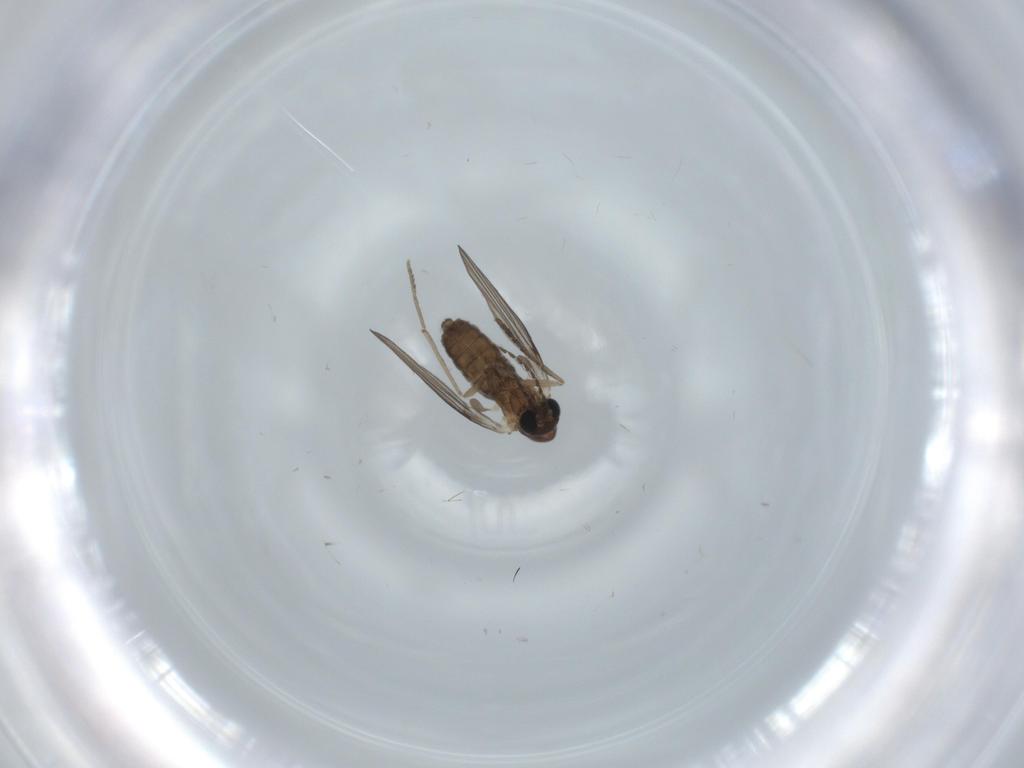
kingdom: Animalia
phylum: Arthropoda
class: Insecta
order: Diptera
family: Psychodidae
